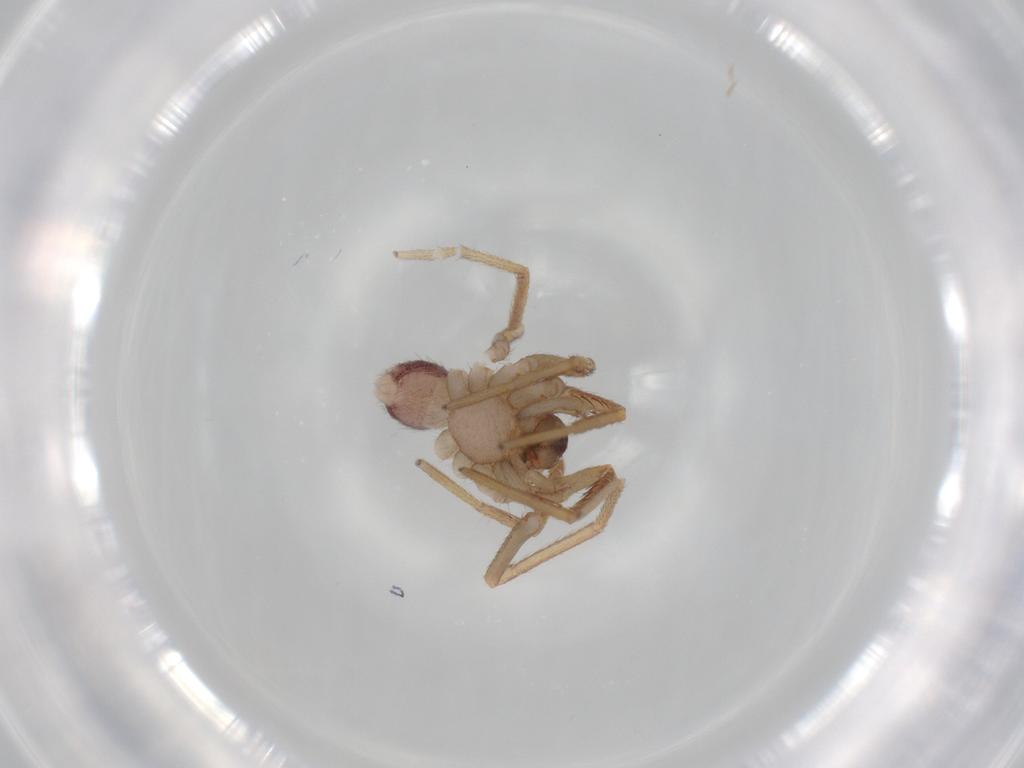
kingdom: Animalia
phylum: Arthropoda
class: Arachnida
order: Araneae
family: Corinnidae
